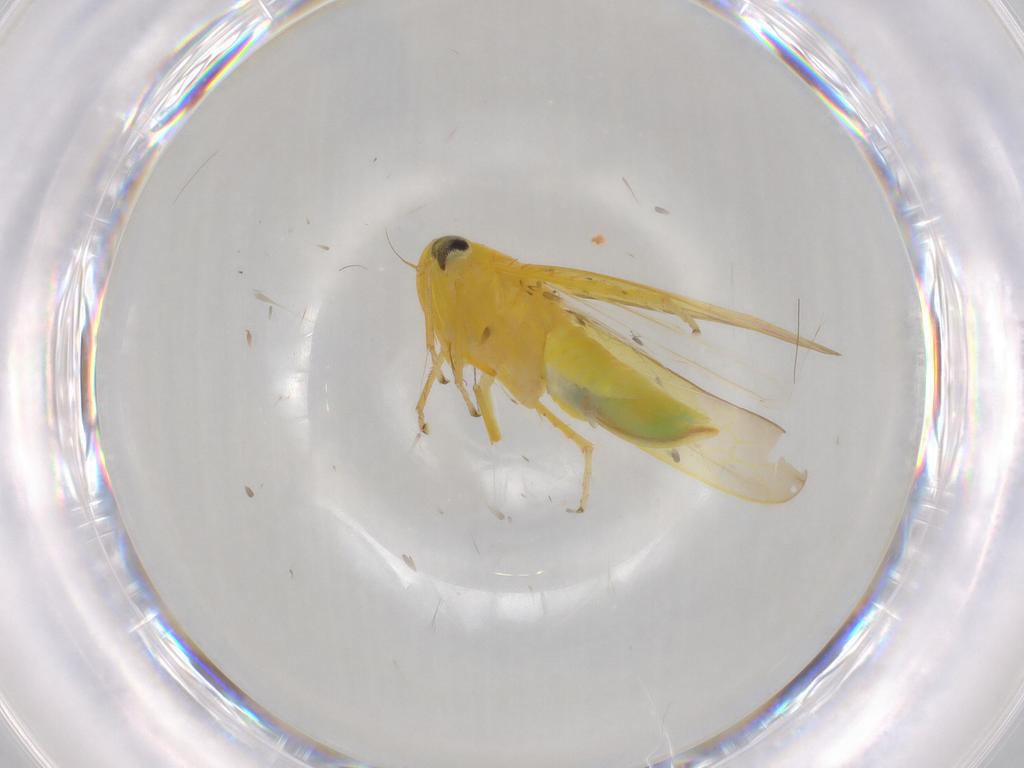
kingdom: Animalia
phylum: Arthropoda
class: Insecta
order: Hemiptera
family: Cicadellidae
